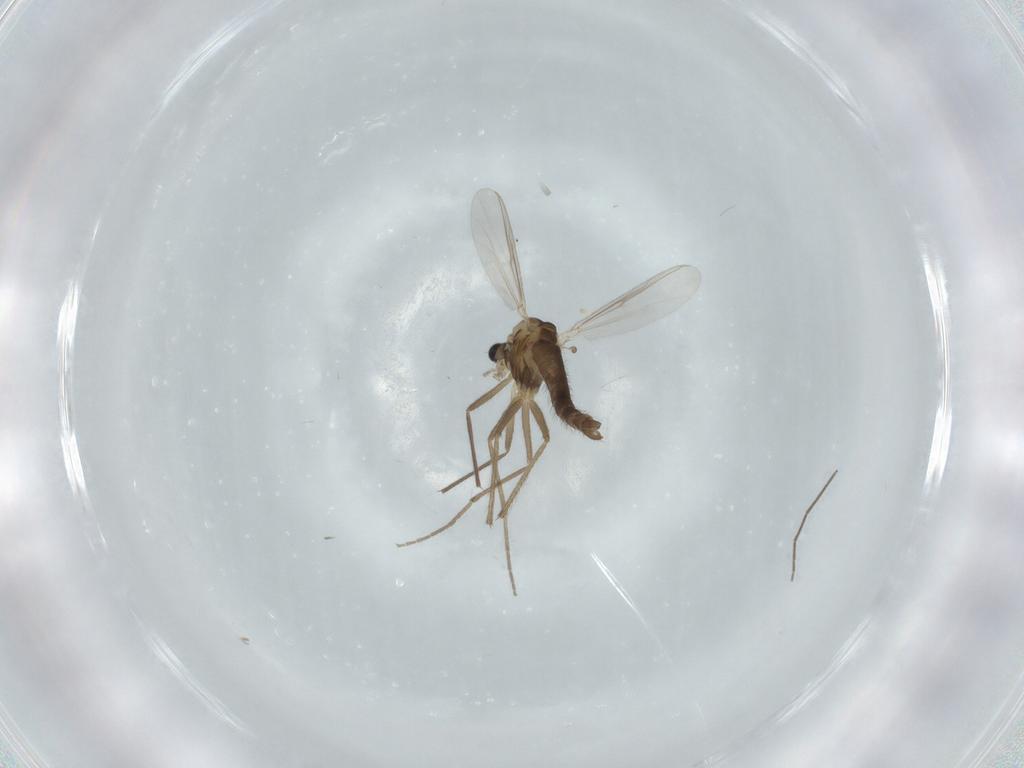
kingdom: Animalia
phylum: Arthropoda
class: Insecta
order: Diptera
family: Chironomidae
